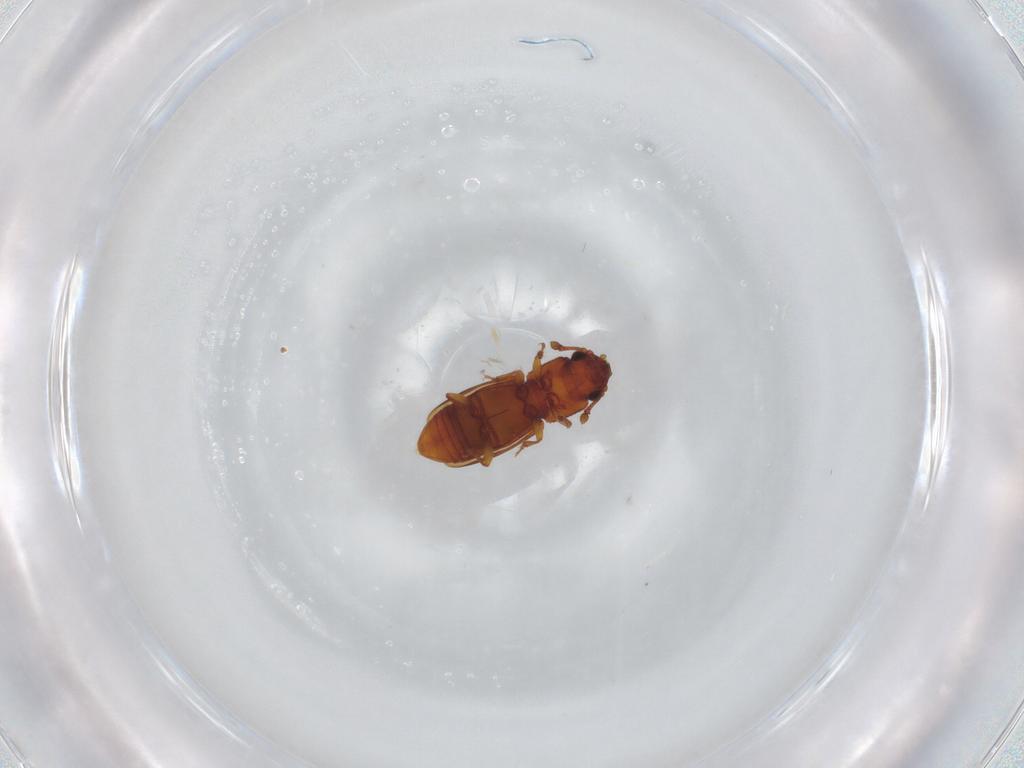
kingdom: Animalia
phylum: Arthropoda
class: Insecta
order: Coleoptera
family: Monotomidae
